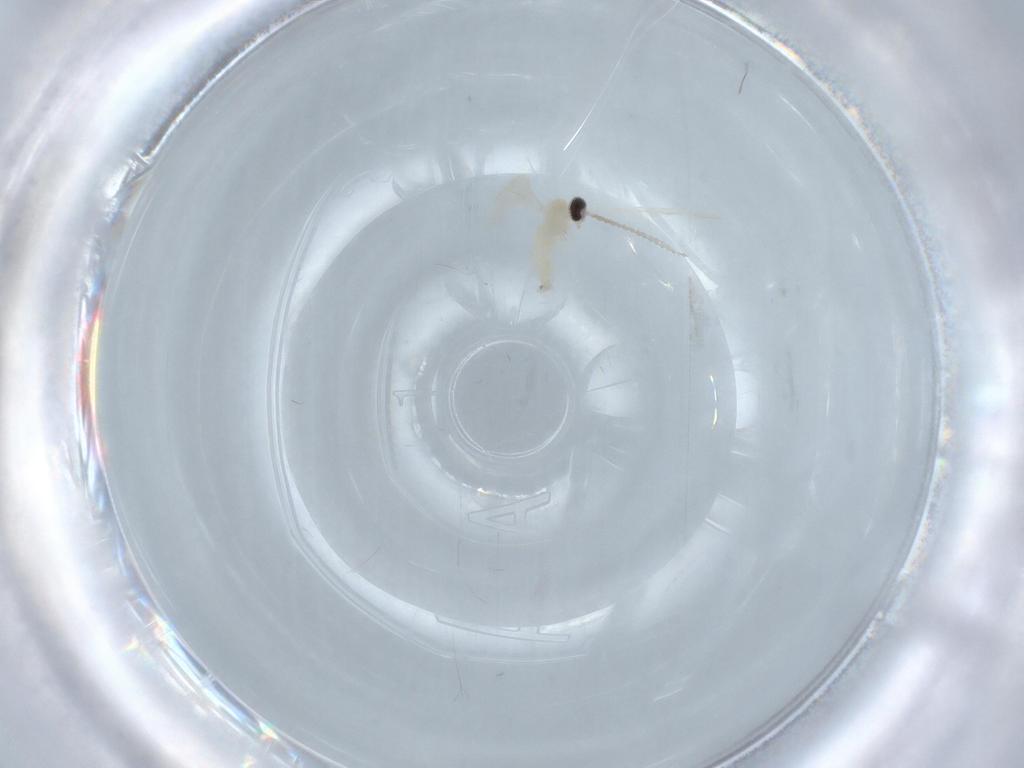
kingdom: Animalia
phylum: Arthropoda
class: Insecta
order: Diptera
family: Cecidomyiidae
